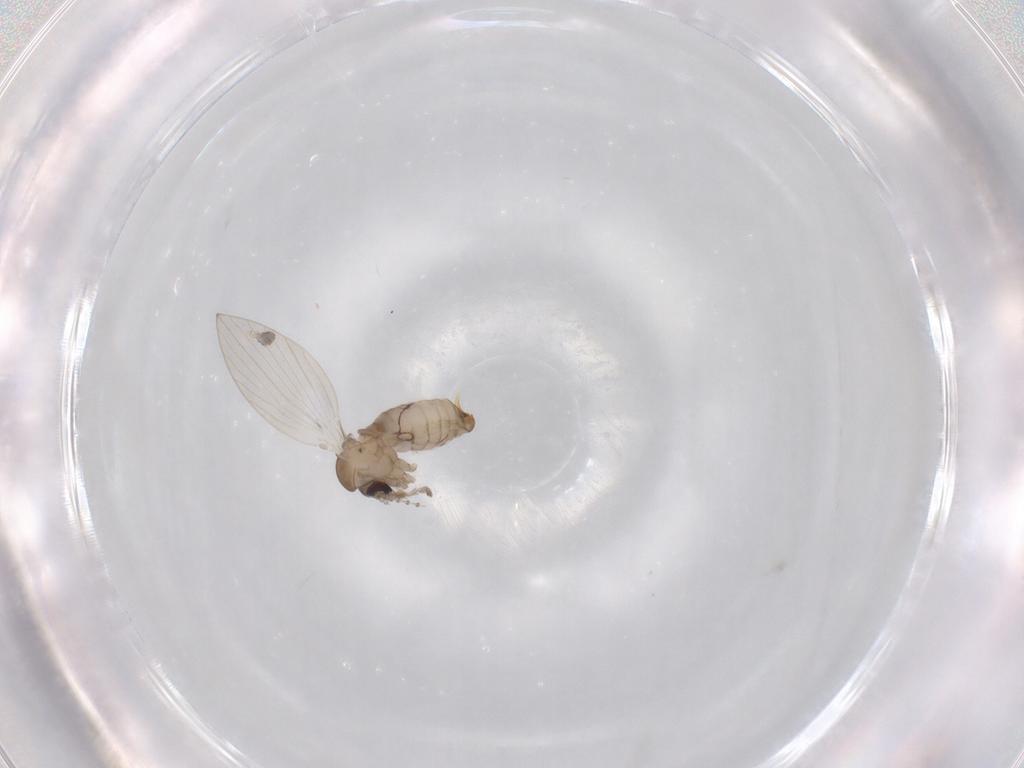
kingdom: Animalia
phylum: Arthropoda
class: Insecta
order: Diptera
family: Psychodidae
